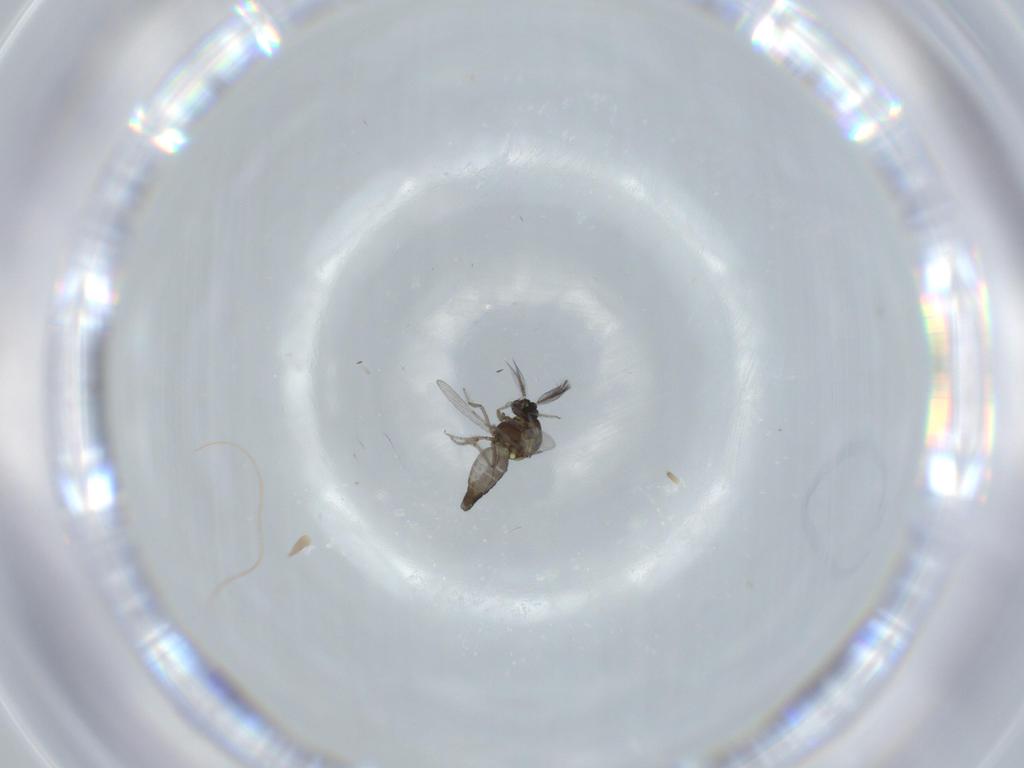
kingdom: Animalia
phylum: Arthropoda
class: Insecta
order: Diptera
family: Ceratopogonidae
